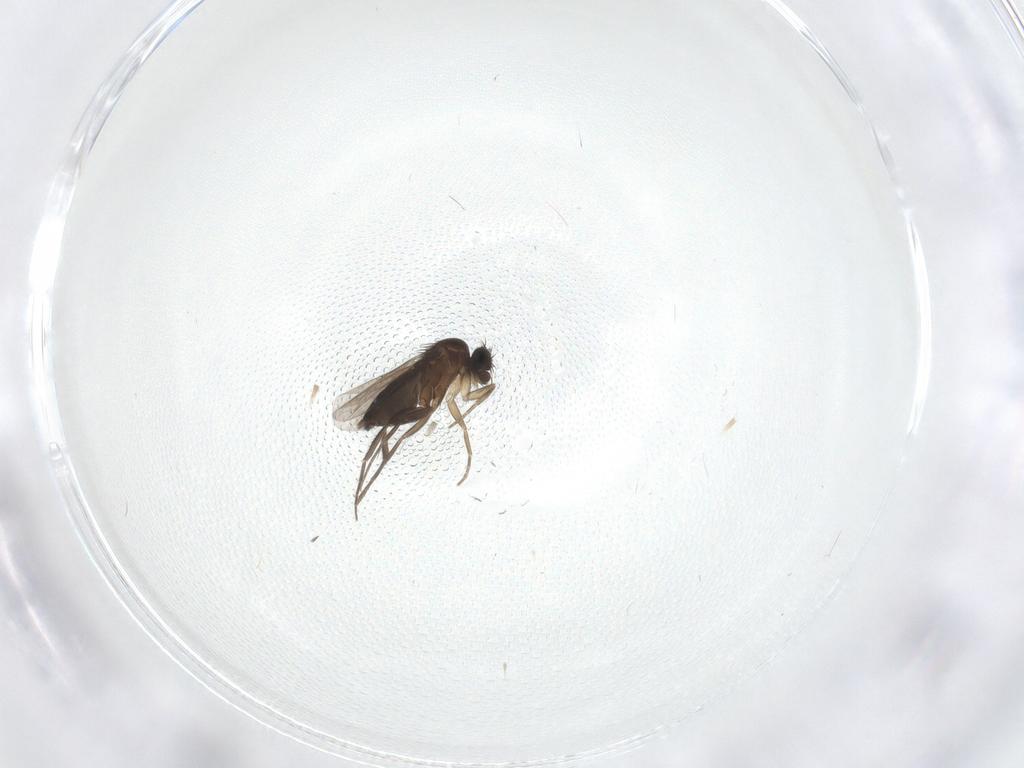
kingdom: Animalia
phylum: Arthropoda
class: Insecta
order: Diptera
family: Phoridae
